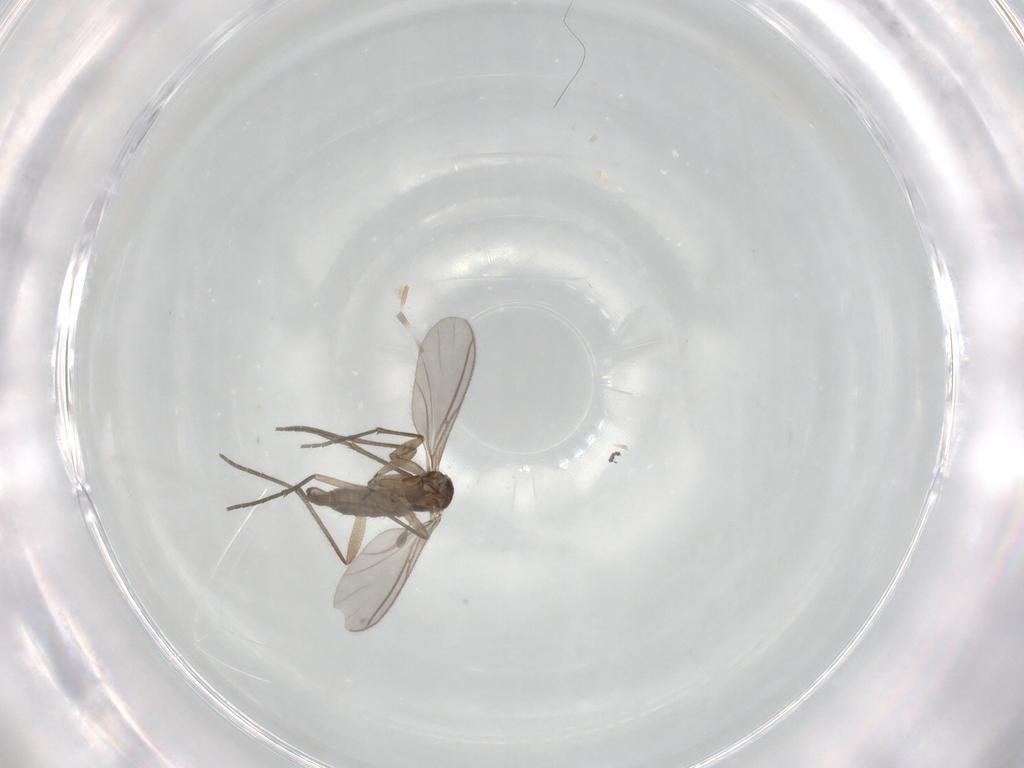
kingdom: Animalia
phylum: Arthropoda
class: Insecta
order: Diptera
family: Sciaridae
